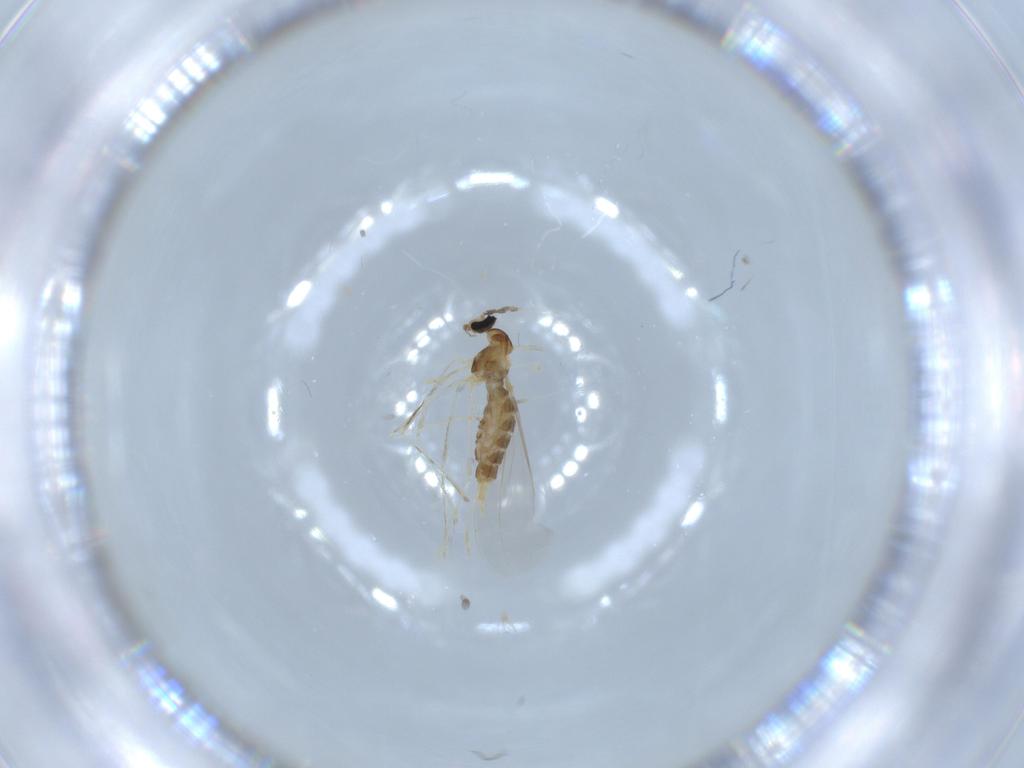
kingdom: Animalia
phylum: Arthropoda
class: Insecta
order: Diptera
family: Cecidomyiidae
